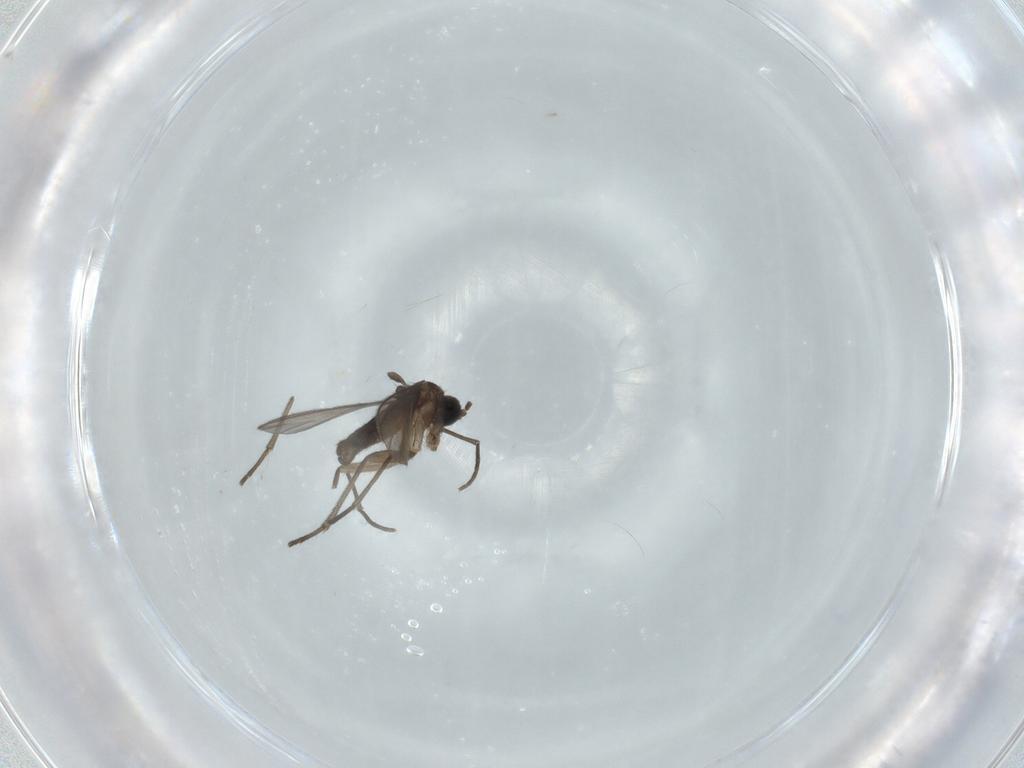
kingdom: Animalia
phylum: Arthropoda
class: Insecta
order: Diptera
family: Sciaridae
